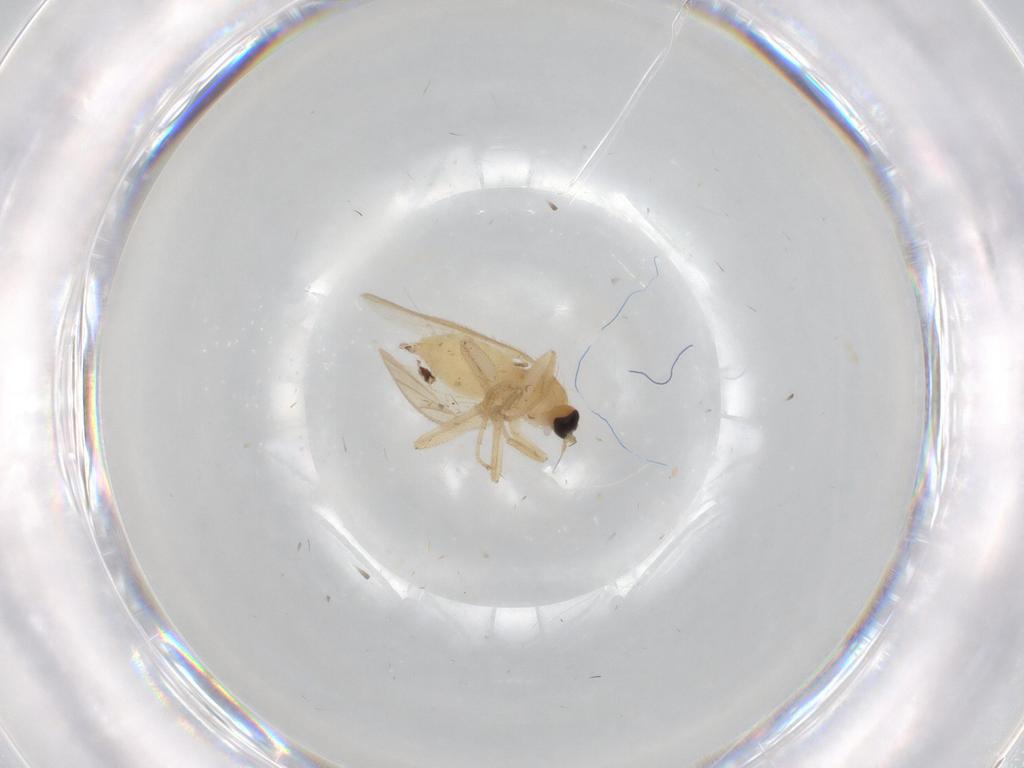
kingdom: Animalia
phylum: Arthropoda
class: Insecta
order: Diptera
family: Hybotidae
